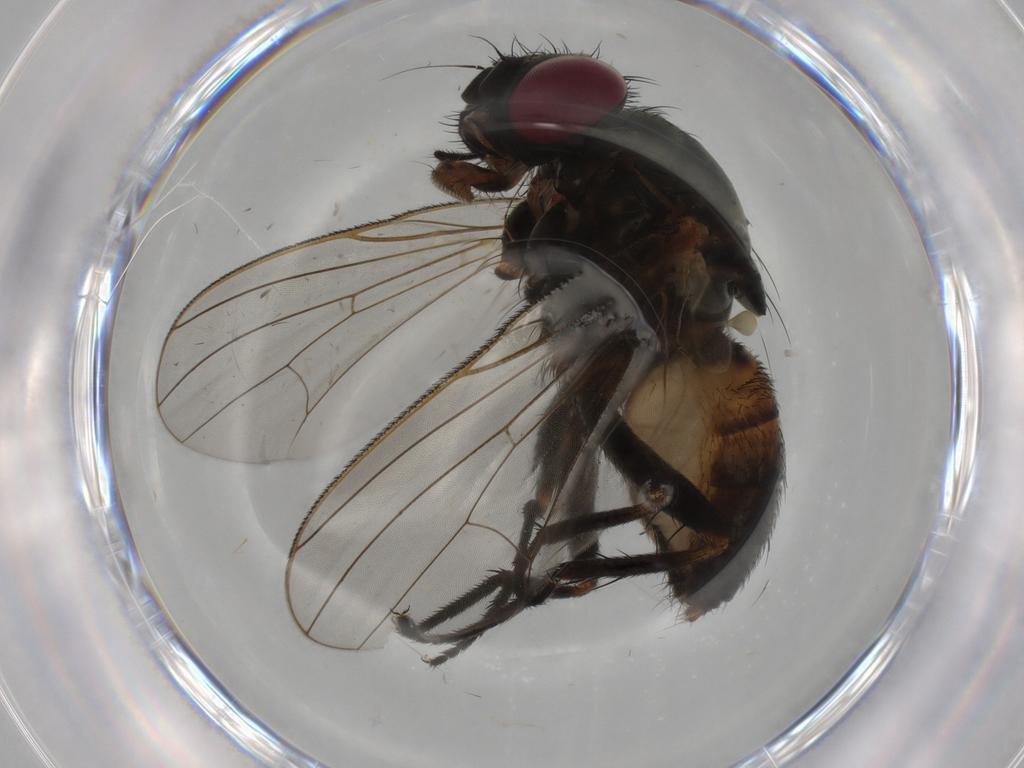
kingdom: Animalia
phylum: Arthropoda
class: Insecta
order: Diptera
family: Fannia
